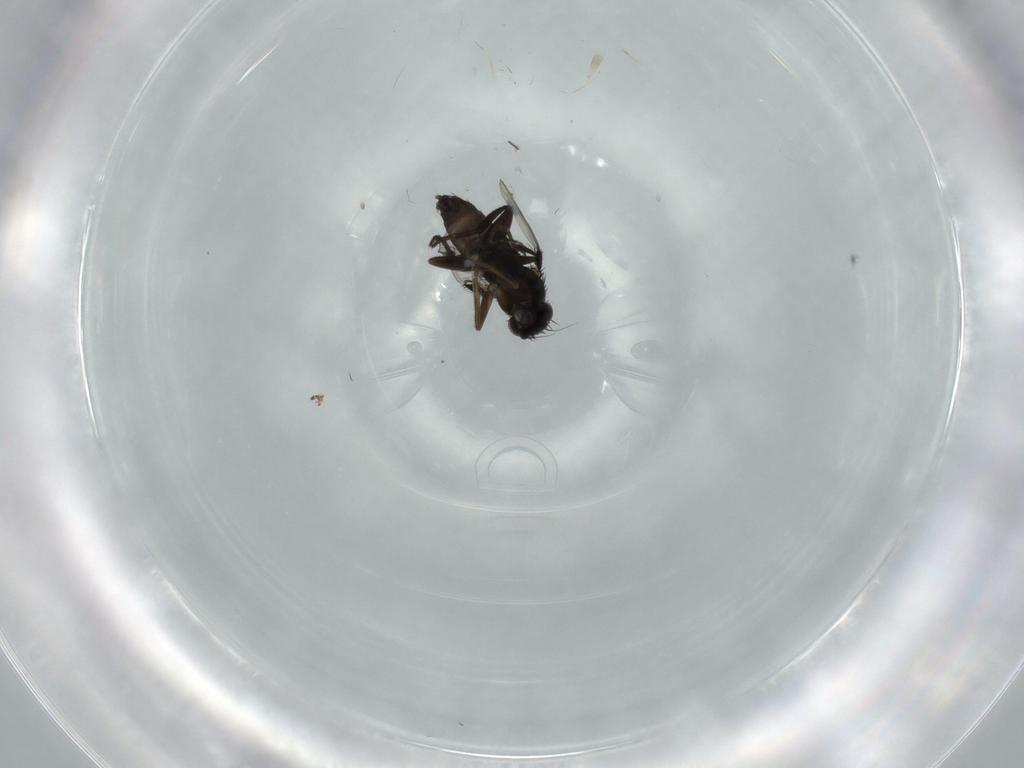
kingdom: Animalia
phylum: Arthropoda
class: Insecta
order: Diptera
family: Phoridae
